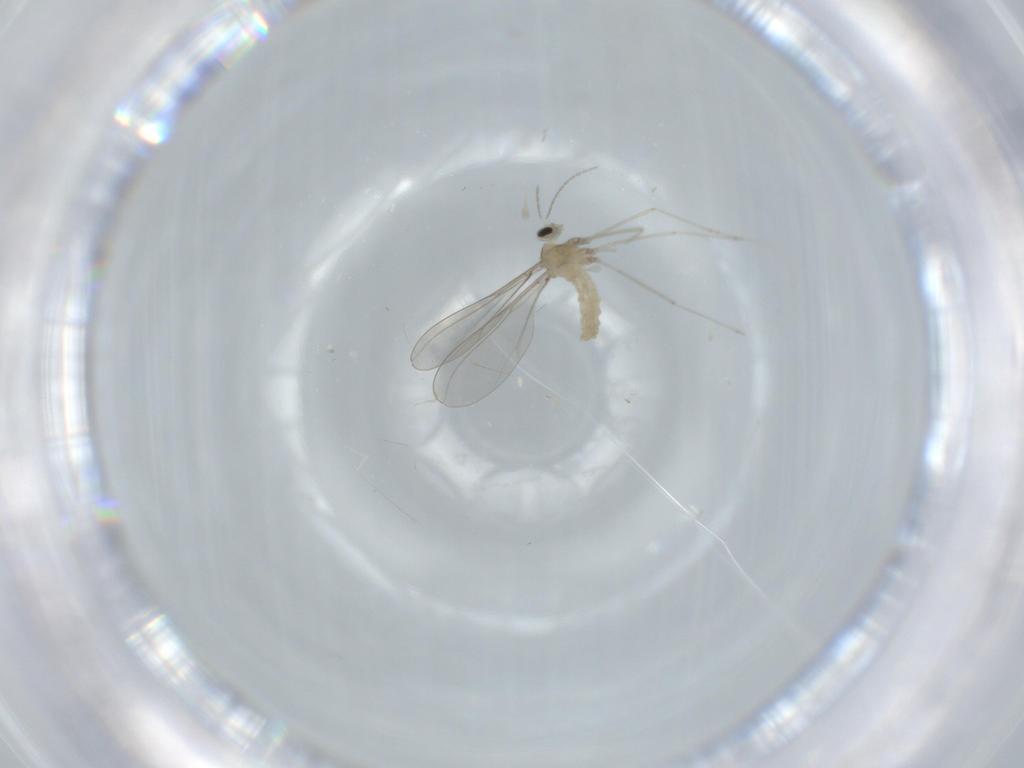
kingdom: Animalia
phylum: Arthropoda
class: Insecta
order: Diptera
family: Cecidomyiidae
